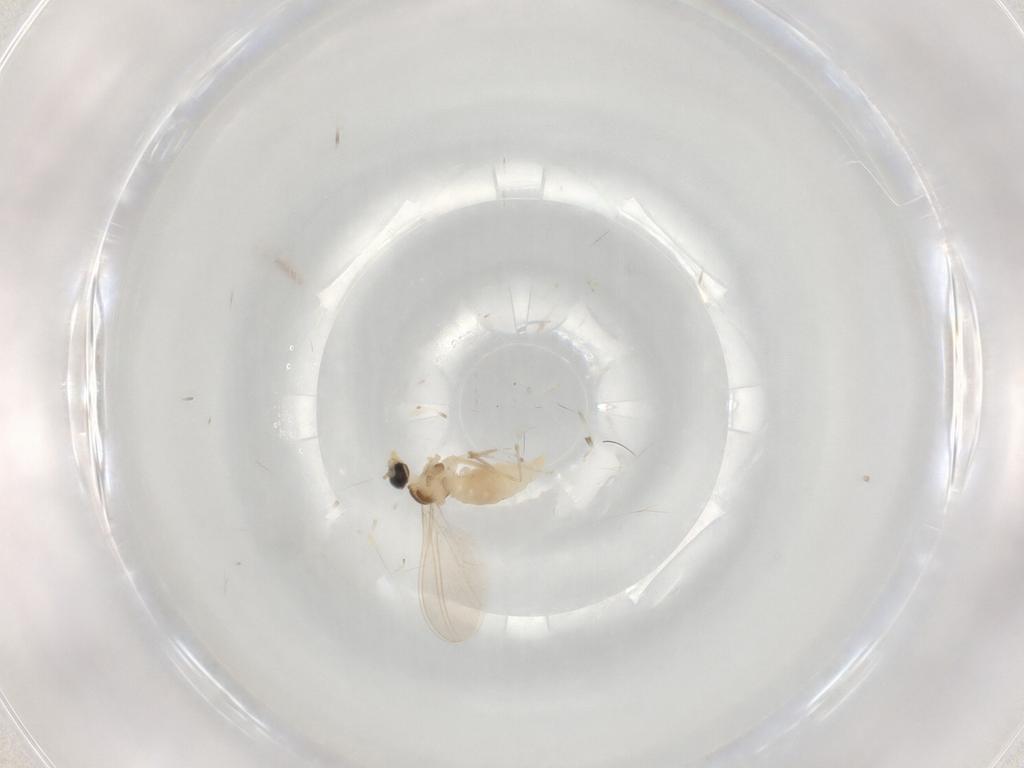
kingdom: Animalia
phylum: Arthropoda
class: Insecta
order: Diptera
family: Cecidomyiidae
